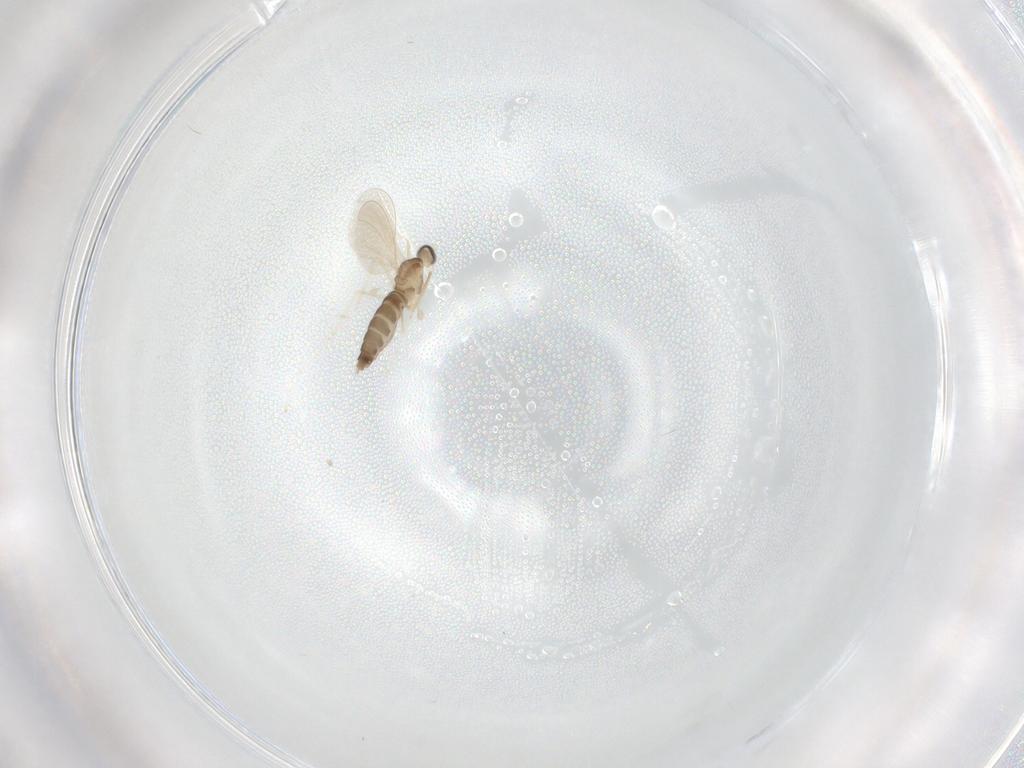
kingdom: Animalia
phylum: Arthropoda
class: Insecta
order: Diptera
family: Cecidomyiidae
